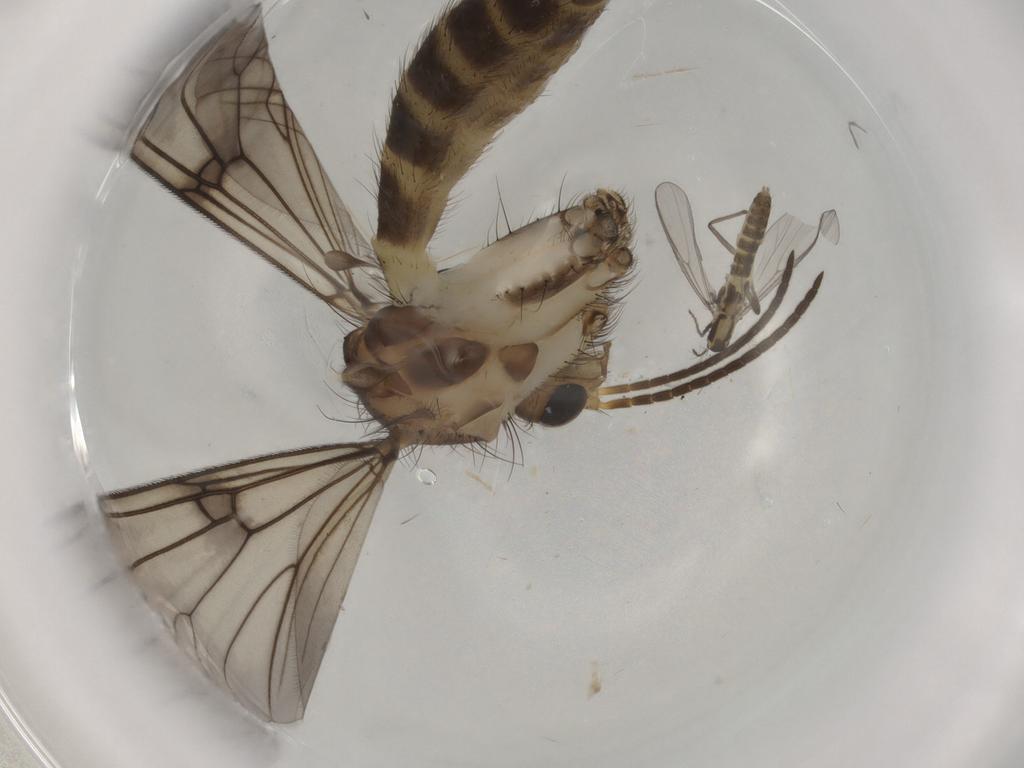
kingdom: Animalia
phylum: Arthropoda
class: Insecta
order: Diptera
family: Mycetophilidae
